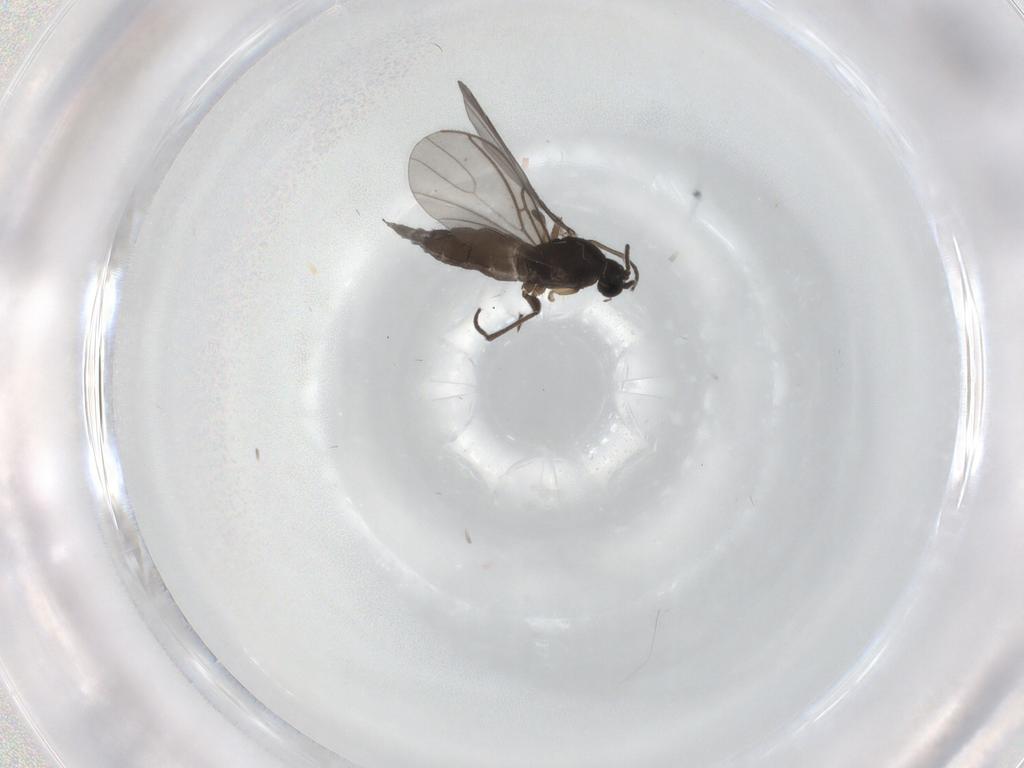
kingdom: Animalia
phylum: Arthropoda
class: Insecta
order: Diptera
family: Sciaridae
